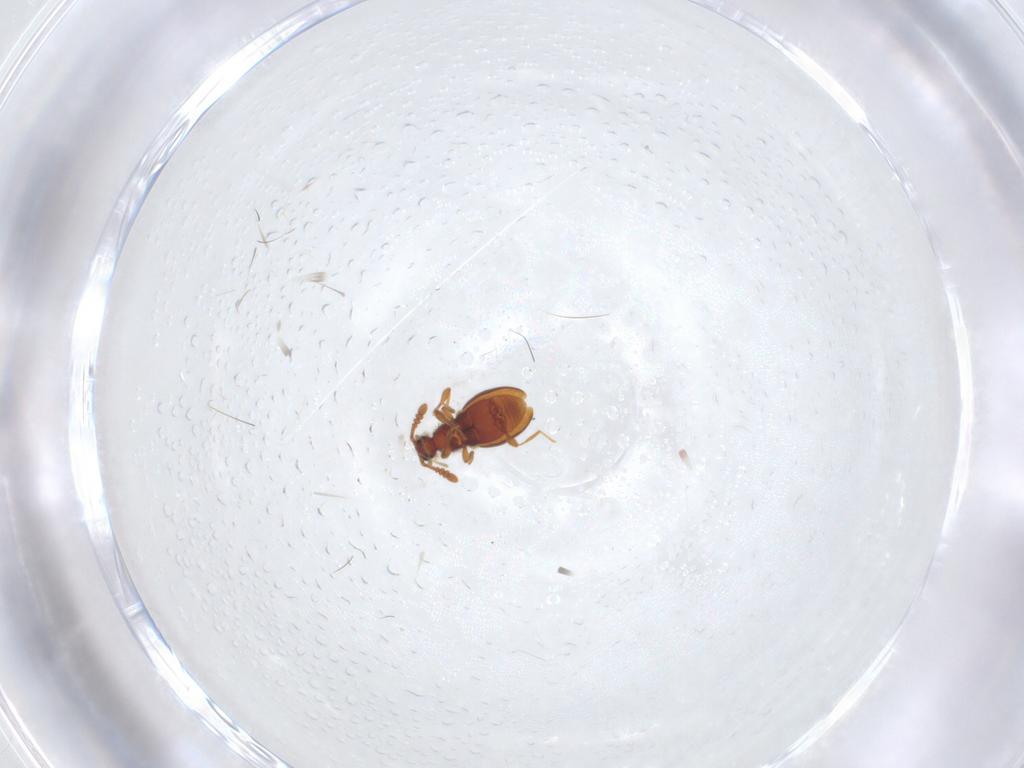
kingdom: Animalia
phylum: Arthropoda
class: Insecta
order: Coleoptera
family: Staphylinidae
